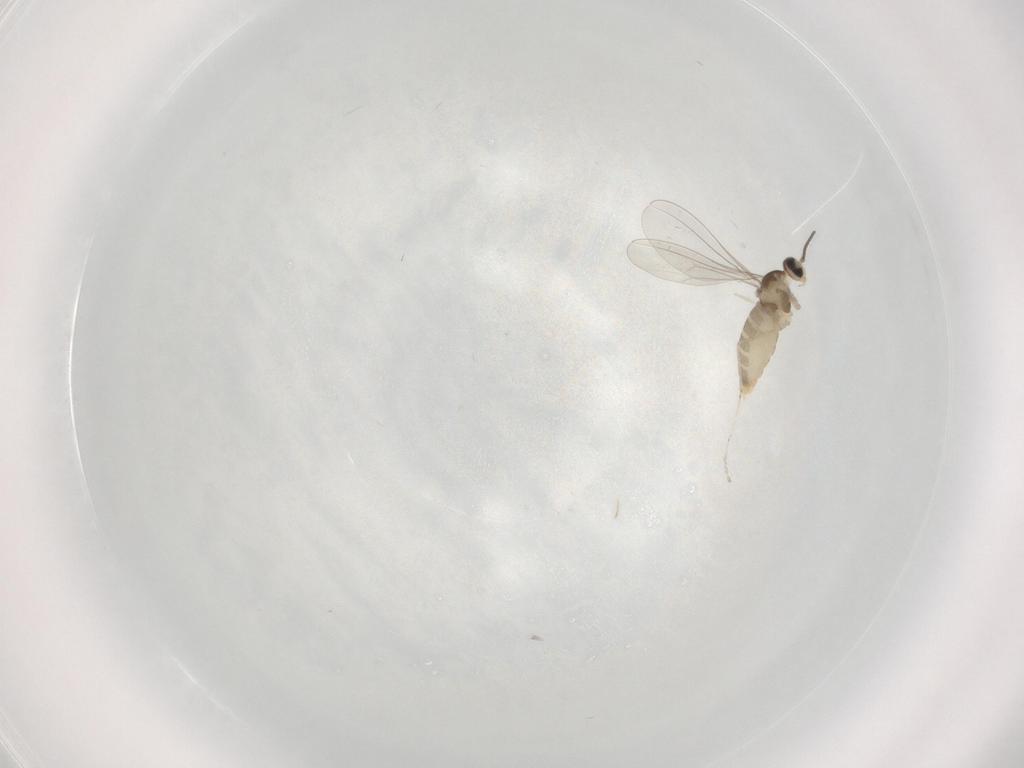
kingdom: Animalia
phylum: Arthropoda
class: Insecta
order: Diptera
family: Cecidomyiidae
